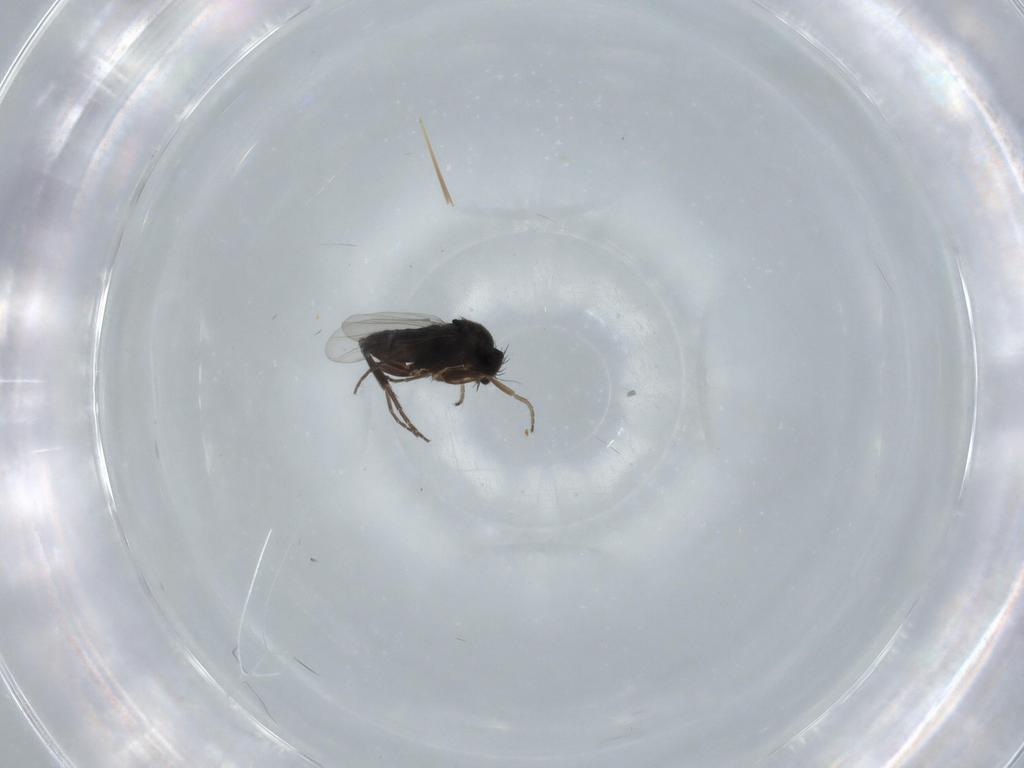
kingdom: Animalia
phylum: Arthropoda
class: Insecta
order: Diptera
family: Phoridae
